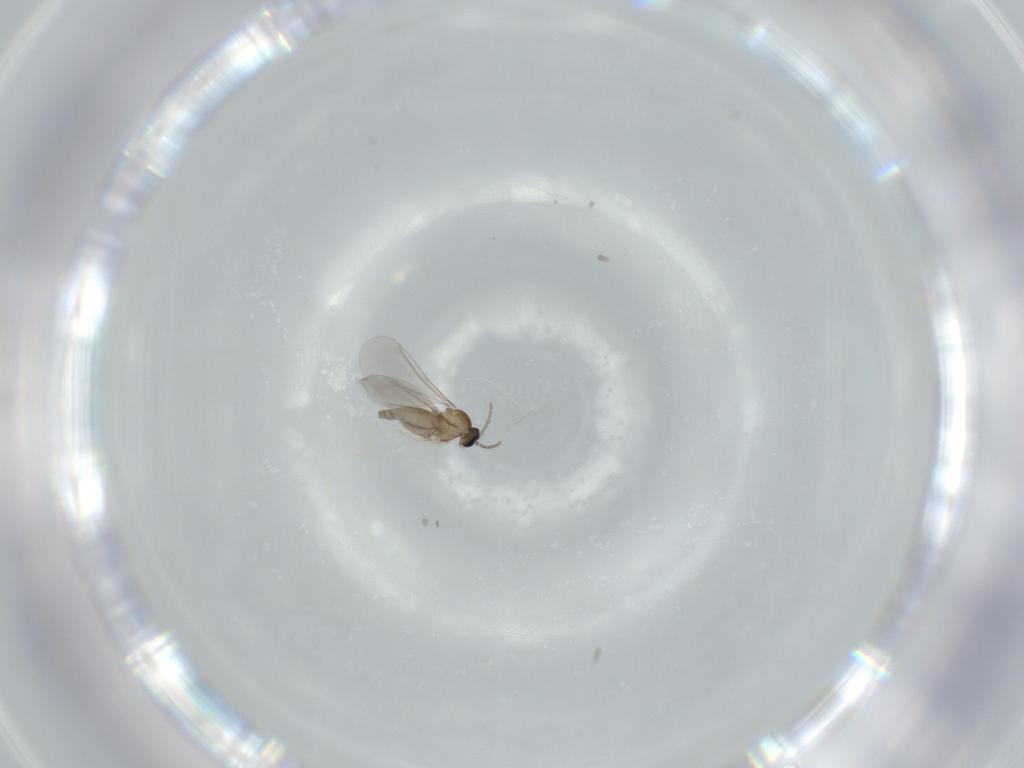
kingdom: Animalia
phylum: Arthropoda
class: Insecta
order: Diptera
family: Cecidomyiidae
